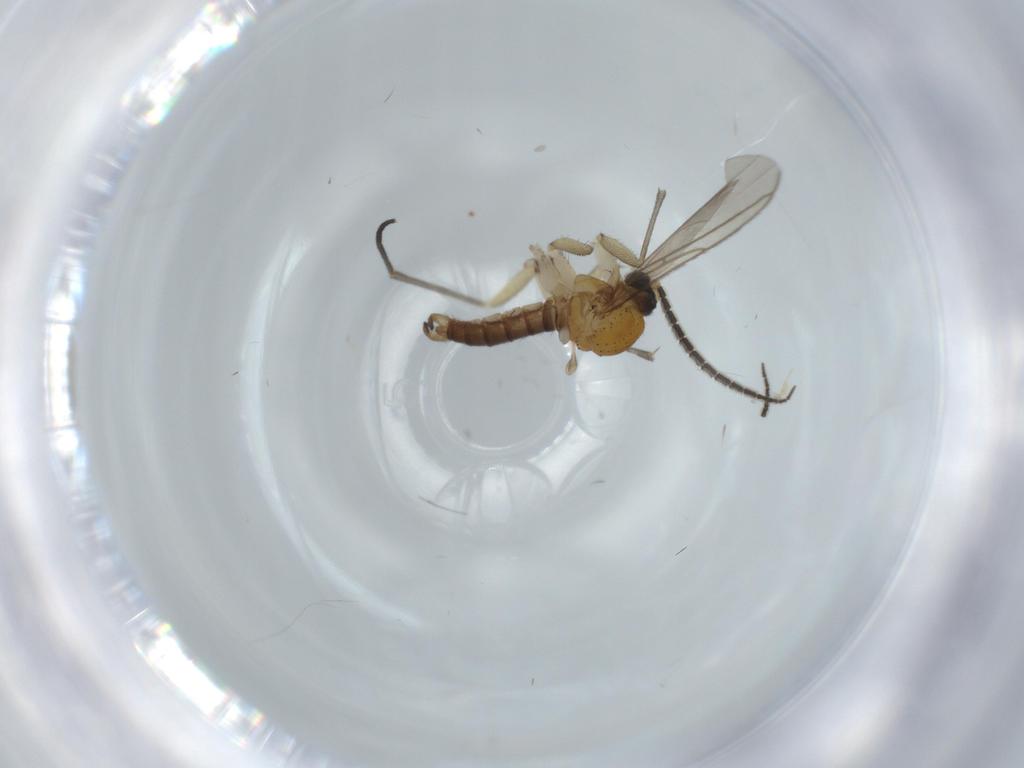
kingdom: Animalia
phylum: Arthropoda
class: Insecta
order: Diptera
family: Sciaridae
